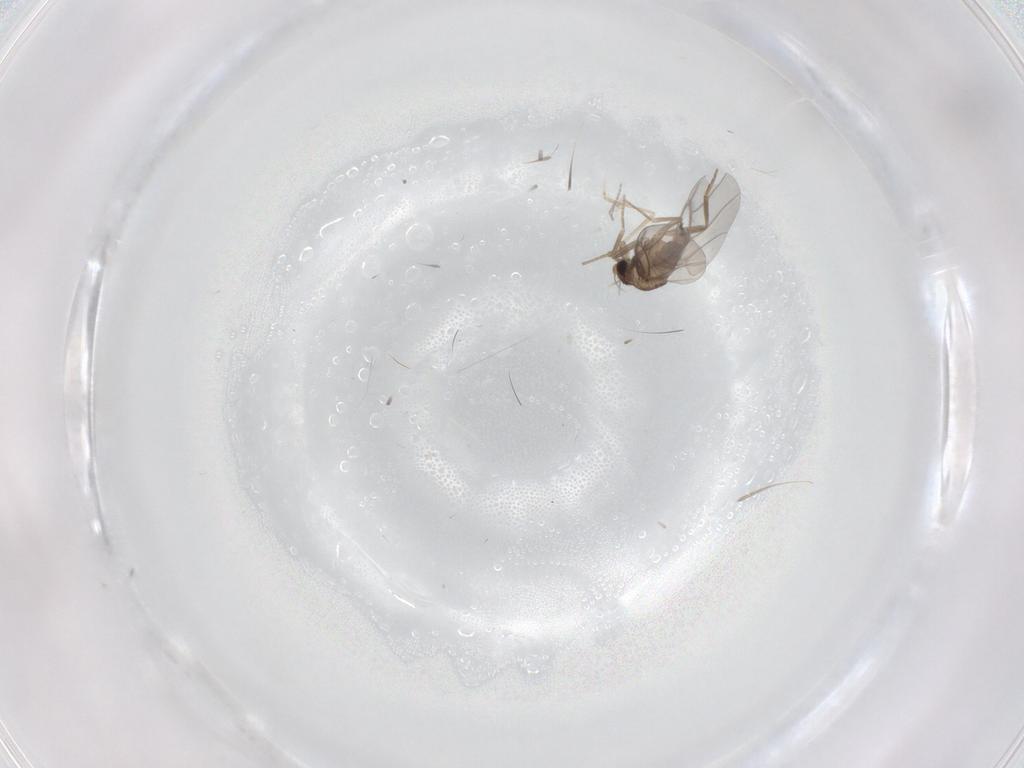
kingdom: Animalia
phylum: Arthropoda
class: Insecta
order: Diptera
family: Cecidomyiidae
